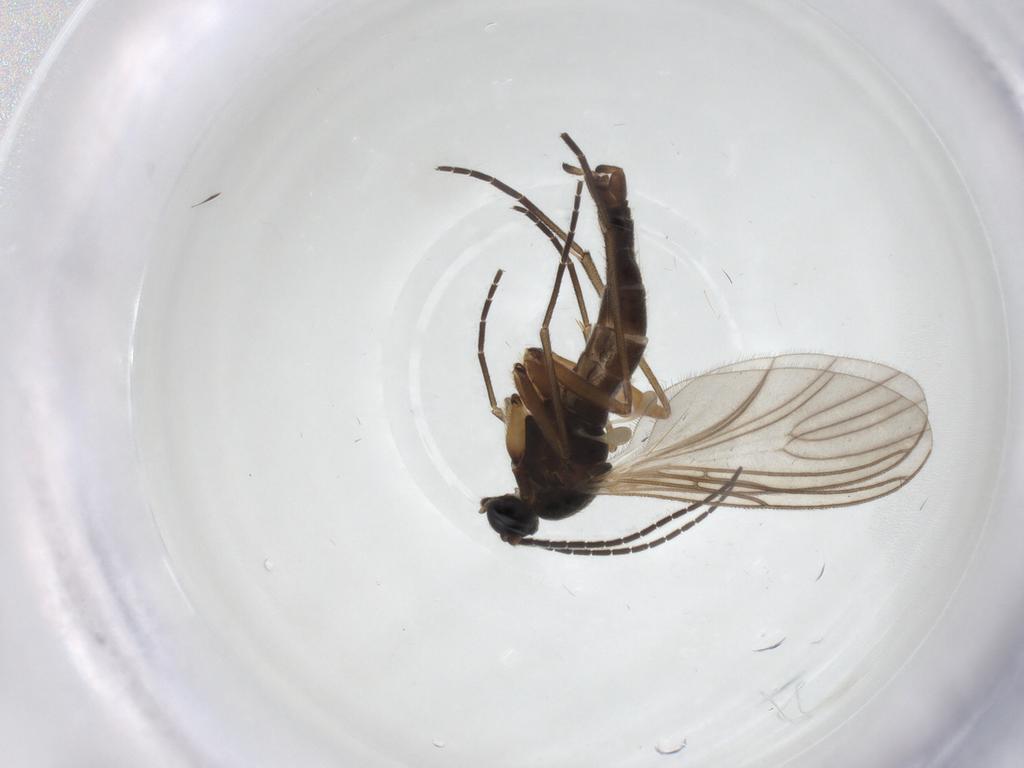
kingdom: Animalia
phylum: Arthropoda
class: Insecta
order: Diptera
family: Sciaridae
